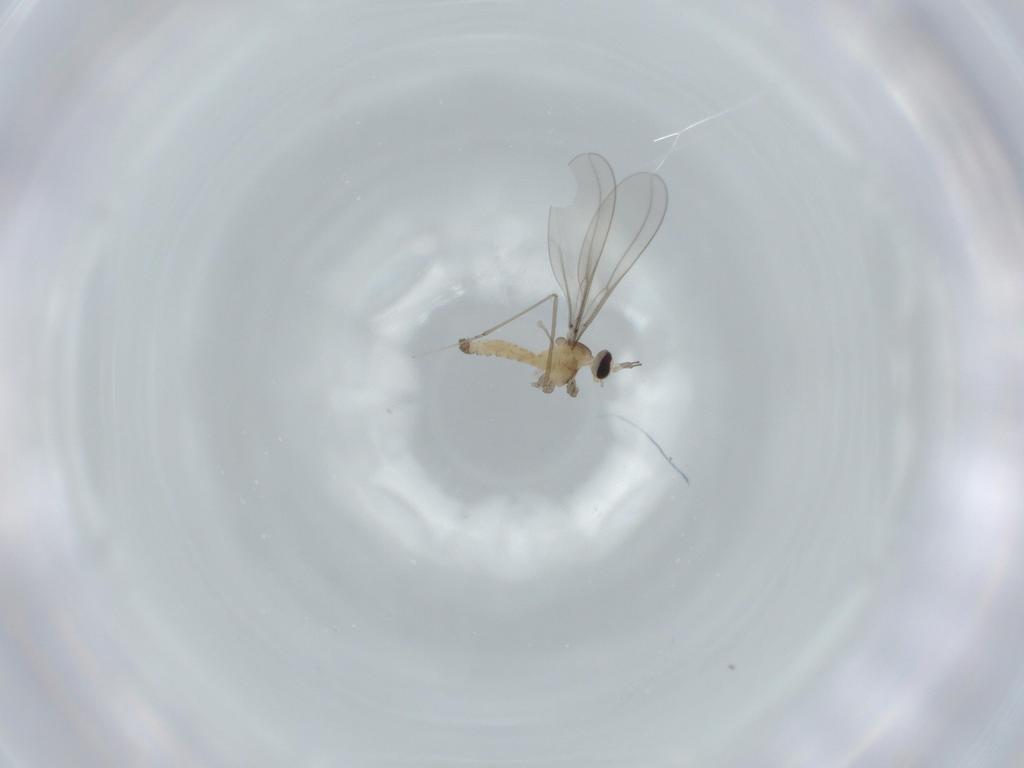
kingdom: Animalia
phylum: Arthropoda
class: Insecta
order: Diptera
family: Cecidomyiidae
